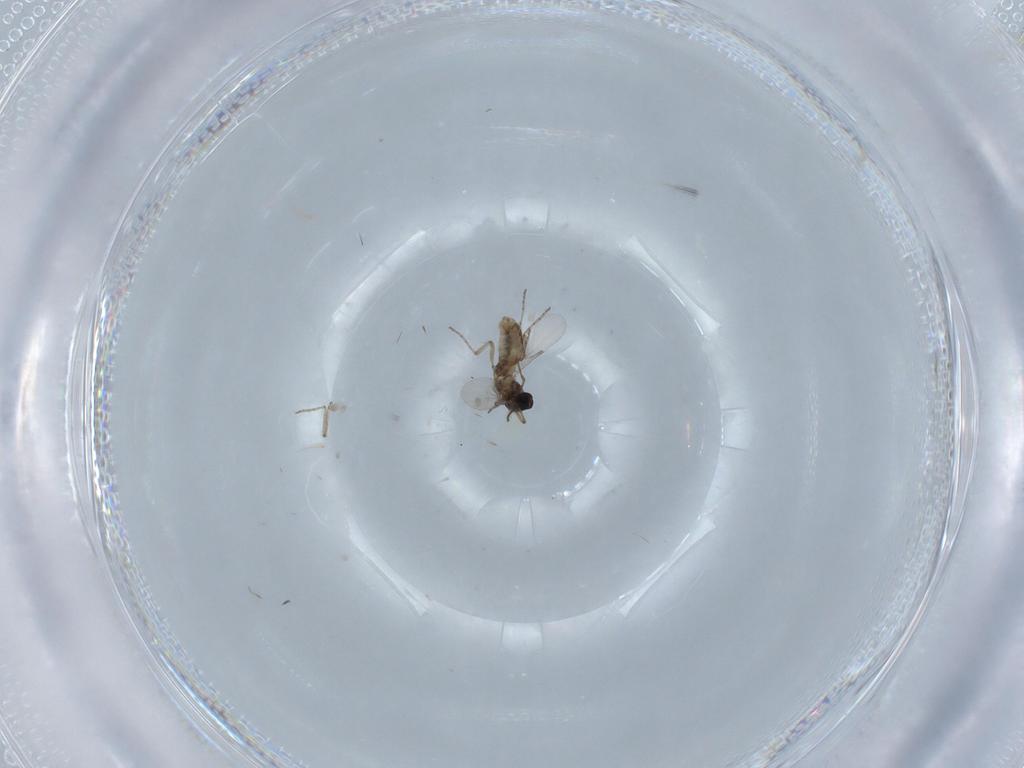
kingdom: Animalia
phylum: Arthropoda
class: Insecta
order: Diptera
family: Ceratopogonidae
